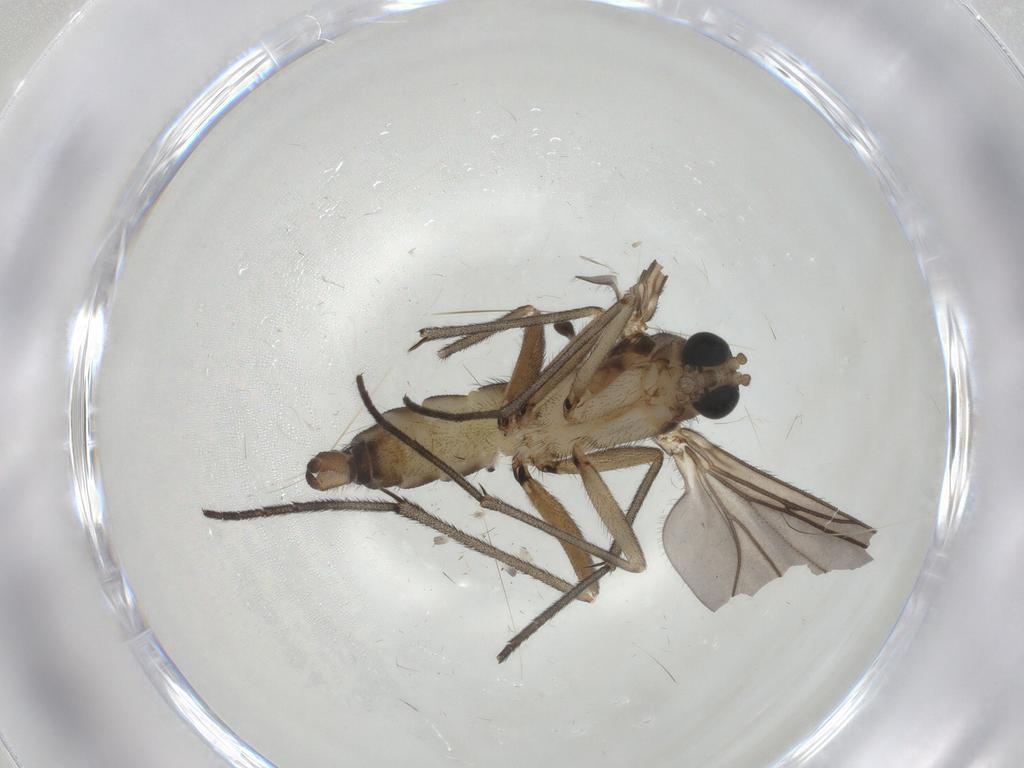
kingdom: Animalia
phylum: Arthropoda
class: Insecta
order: Diptera
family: Sciaridae
